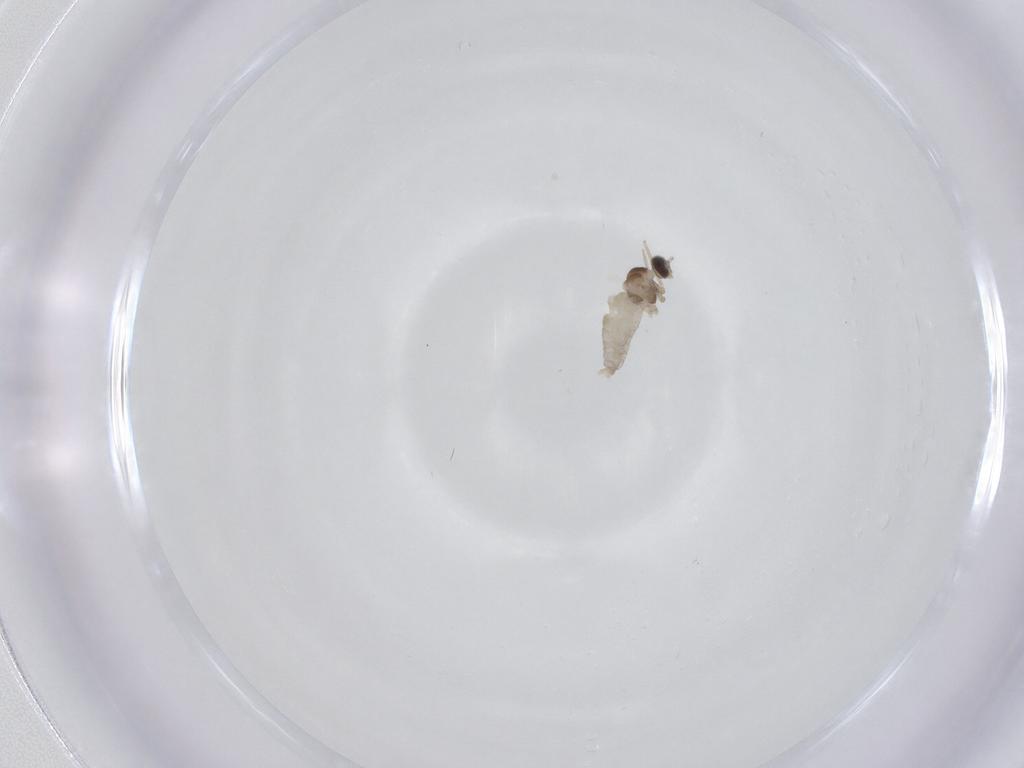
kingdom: Animalia
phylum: Arthropoda
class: Insecta
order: Diptera
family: Cecidomyiidae
